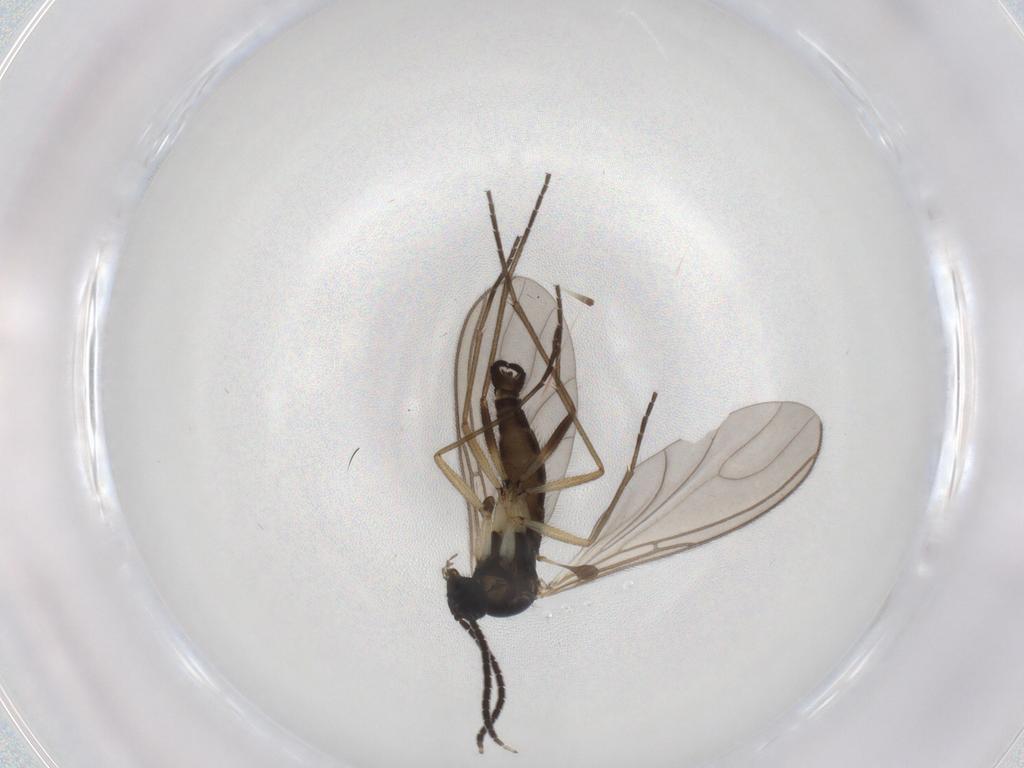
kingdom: Animalia
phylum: Arthropoda
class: Insecta
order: Diptera
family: Sciaridae
